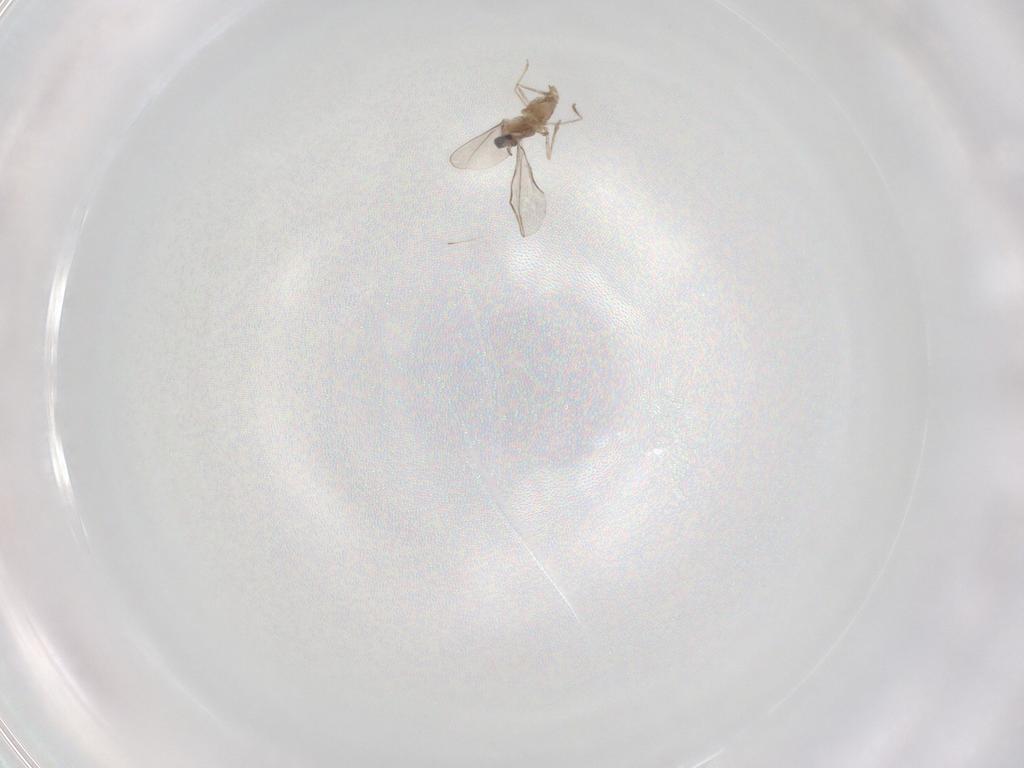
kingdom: Animalia
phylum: Arthropoda
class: Insecta
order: Diptera
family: Ceratopogonidae
